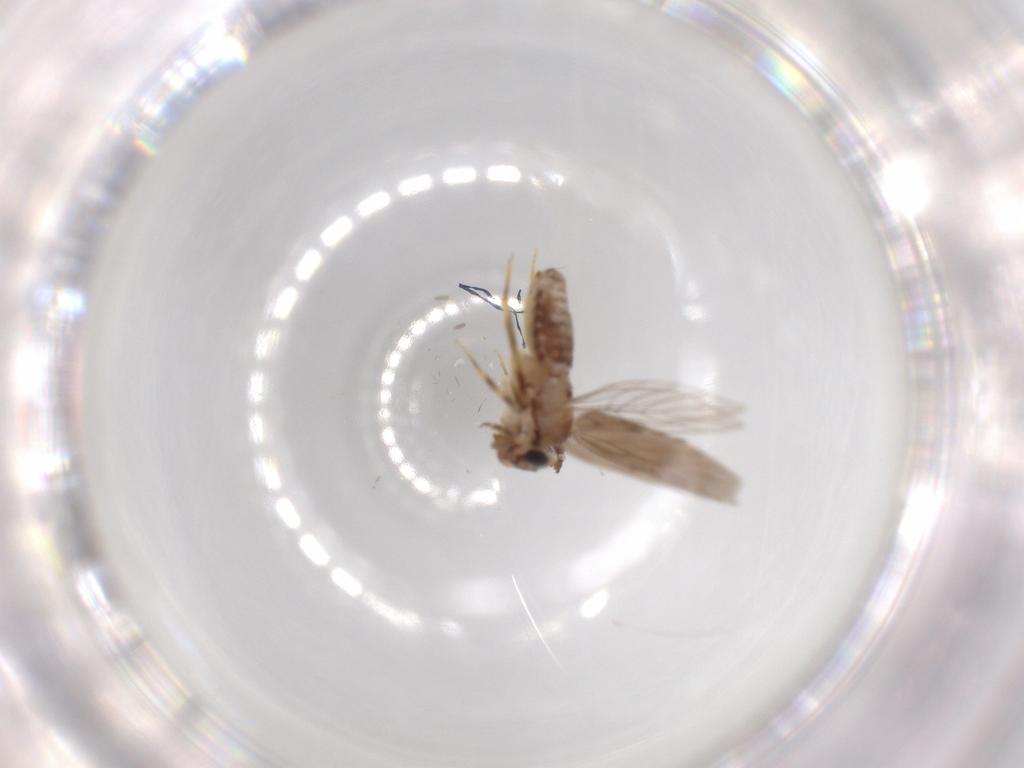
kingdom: Animalia
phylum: Arthropoda
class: Insecta
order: Psocodea
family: Lepidopsocidae
